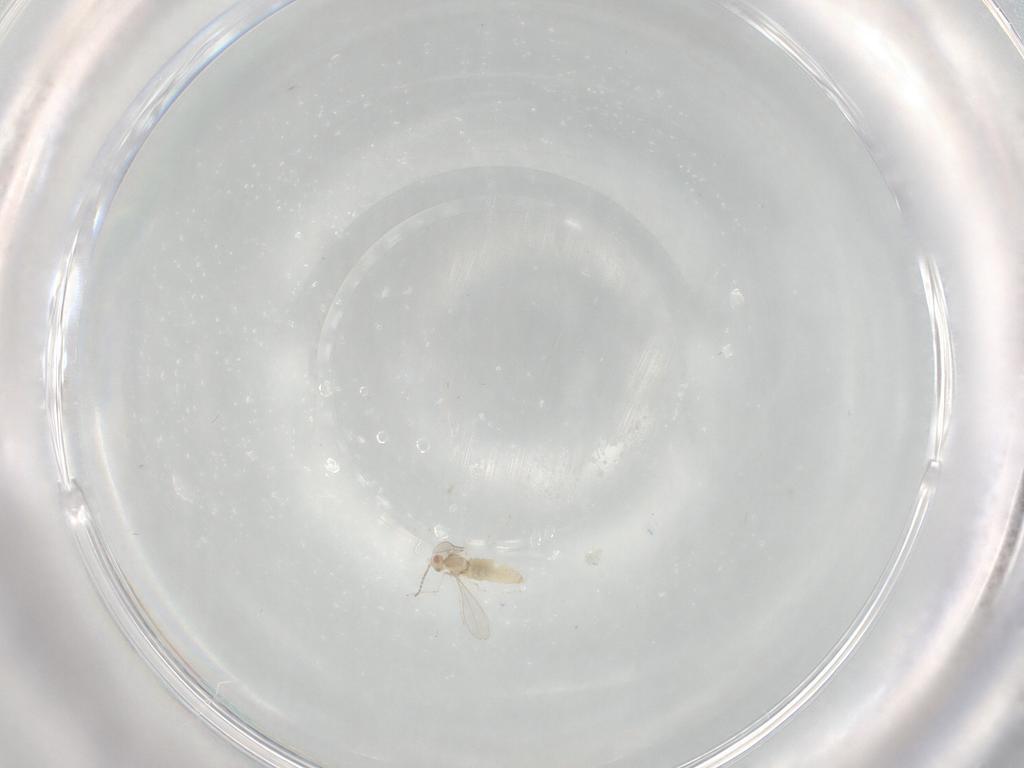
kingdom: Animalia
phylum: Arthropoda
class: Insecta
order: Diptera
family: Cecidomyiidae
